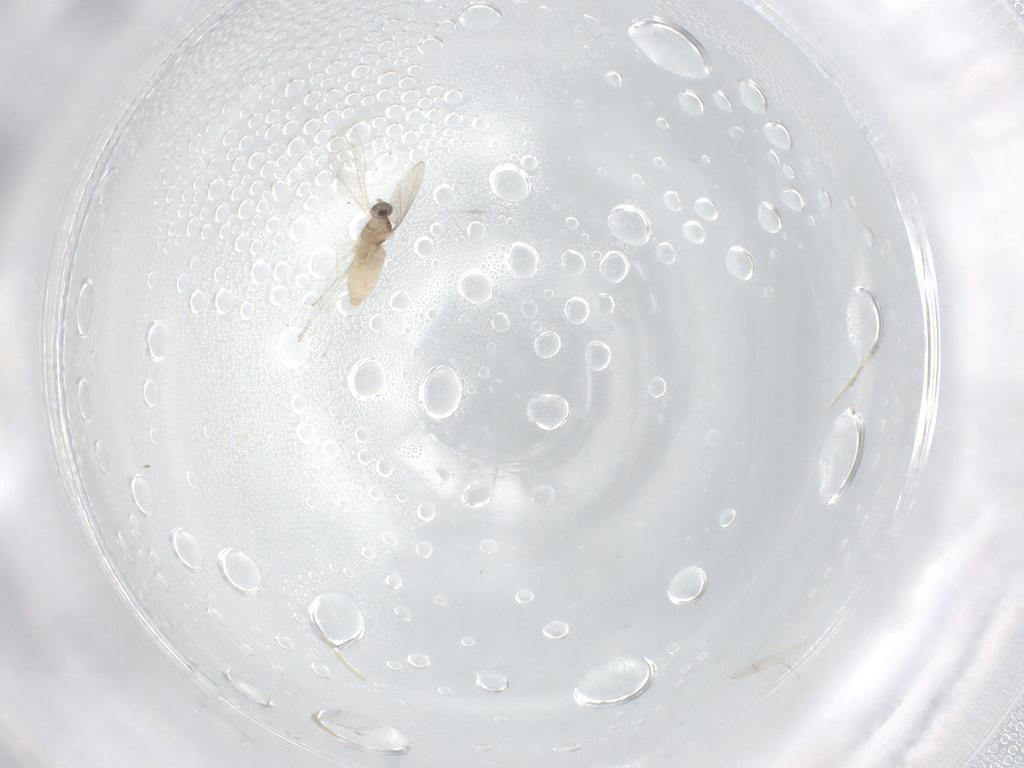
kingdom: Animalia
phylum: Arthropoda
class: Insecta
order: Diptera
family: Cecidomyiidae
